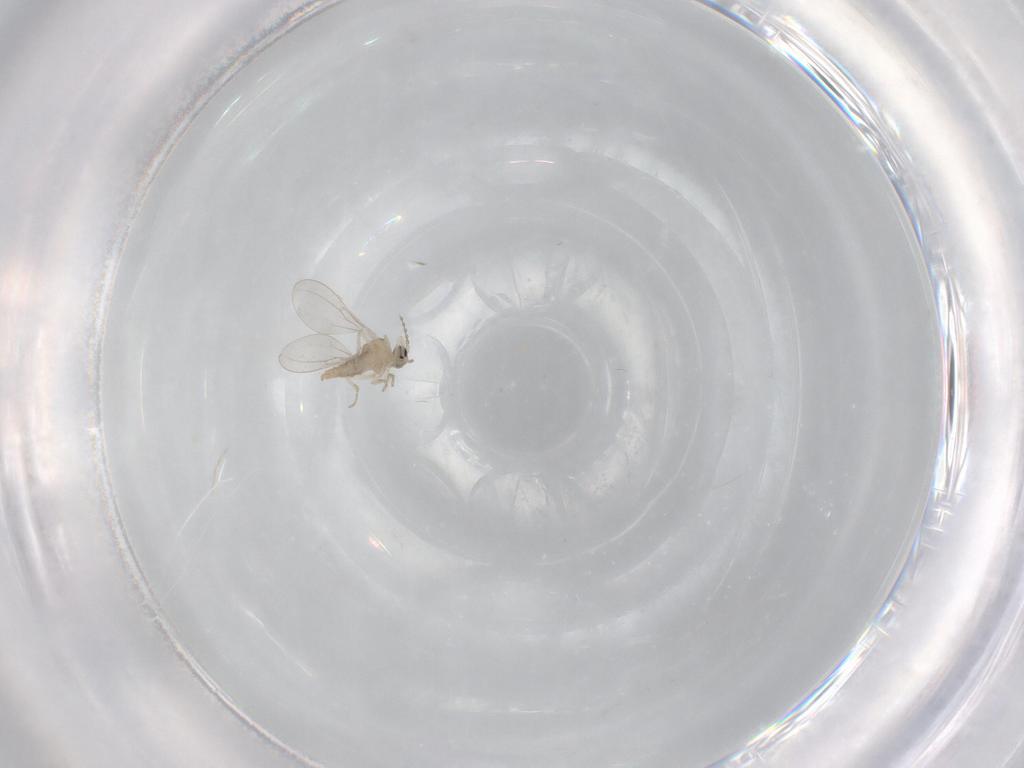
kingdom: Animalia
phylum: Arthropoda
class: Insecta
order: Diptera
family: Cecidomyiidae
